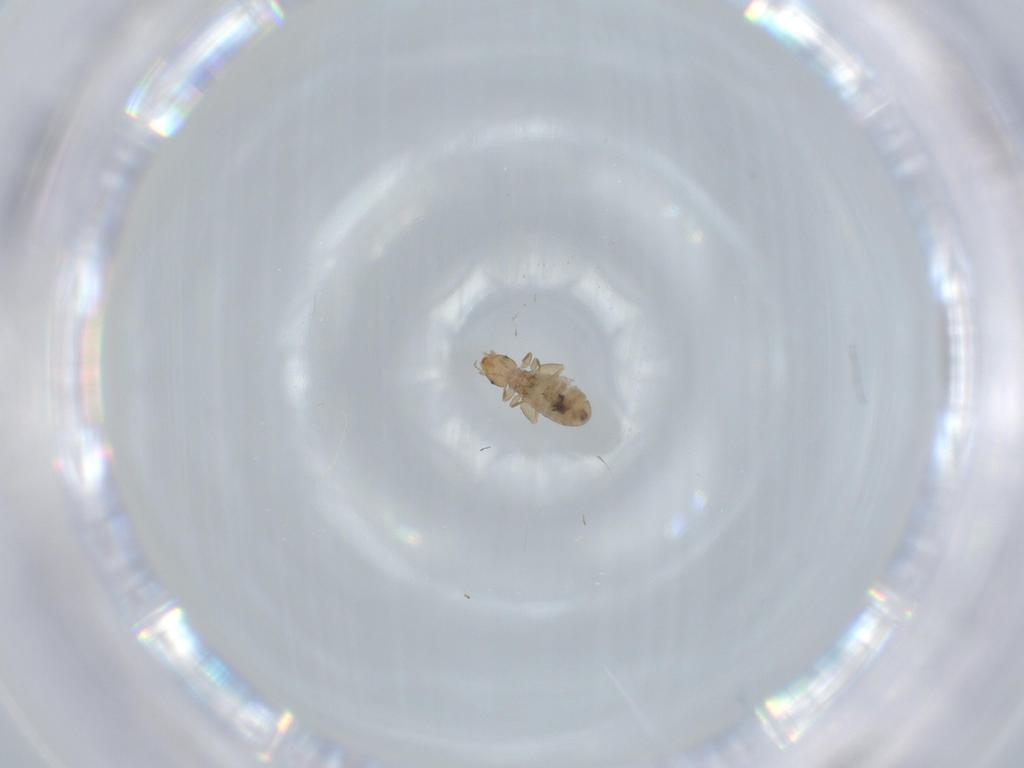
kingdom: Animalia
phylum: Arthropoda
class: Insecta
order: Psocodea
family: Liposcelididae
